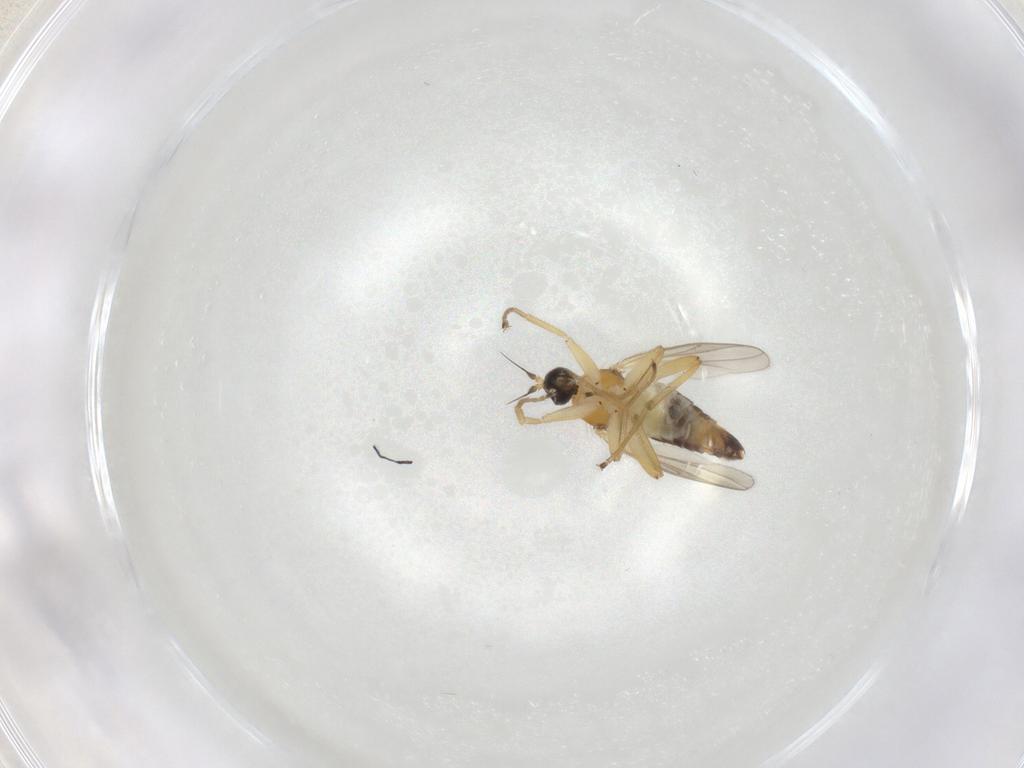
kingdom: Animalia
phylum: Arthropoda
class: Insecta
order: Diptera
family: Hybotidae
